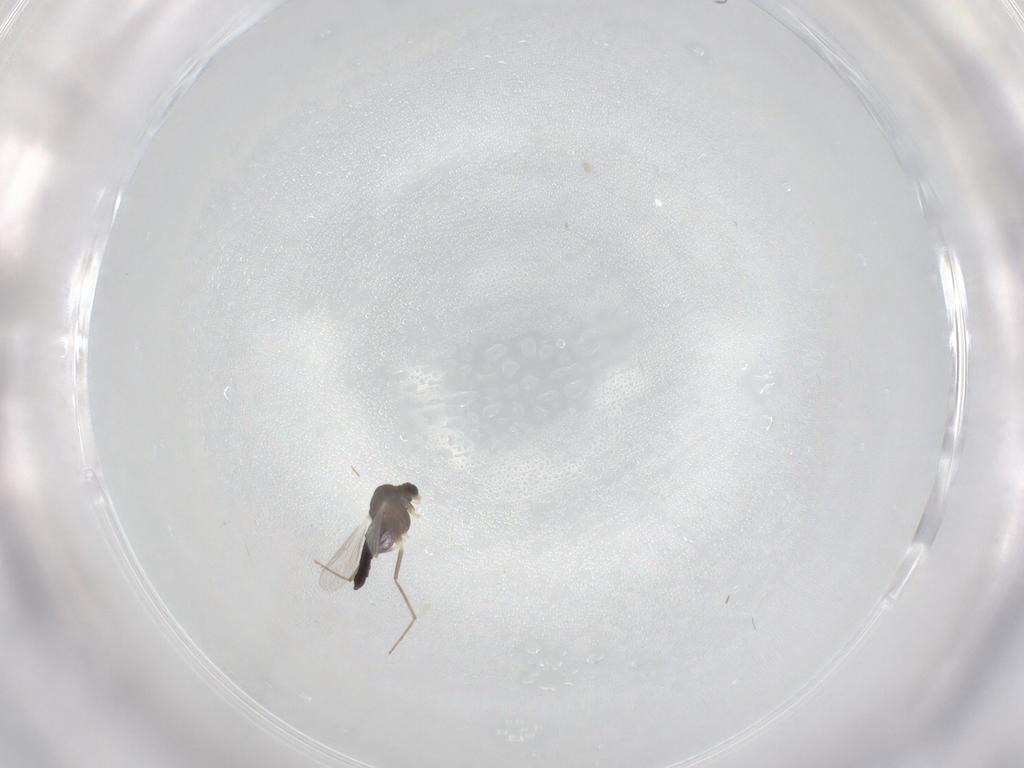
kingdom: Animalia
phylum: Arthropoda
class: Insecta
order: Diptera
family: Chironomidae
